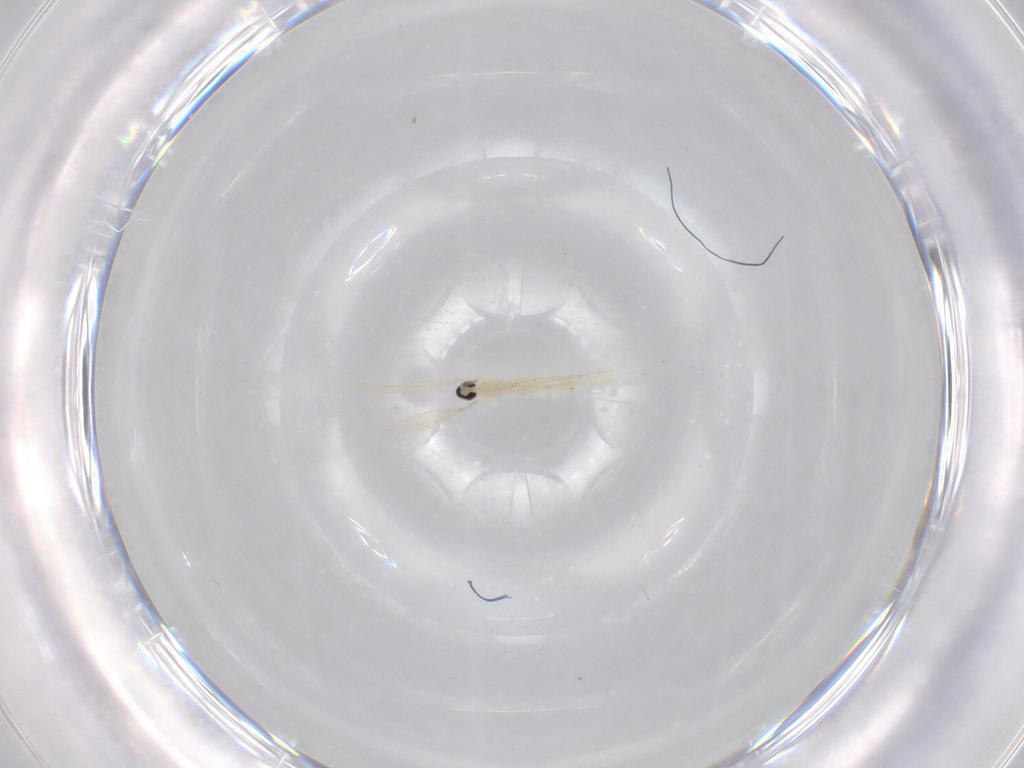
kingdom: Animalia
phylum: Arthropoda
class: Insecta
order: Diptera
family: Cecidomyiidae
